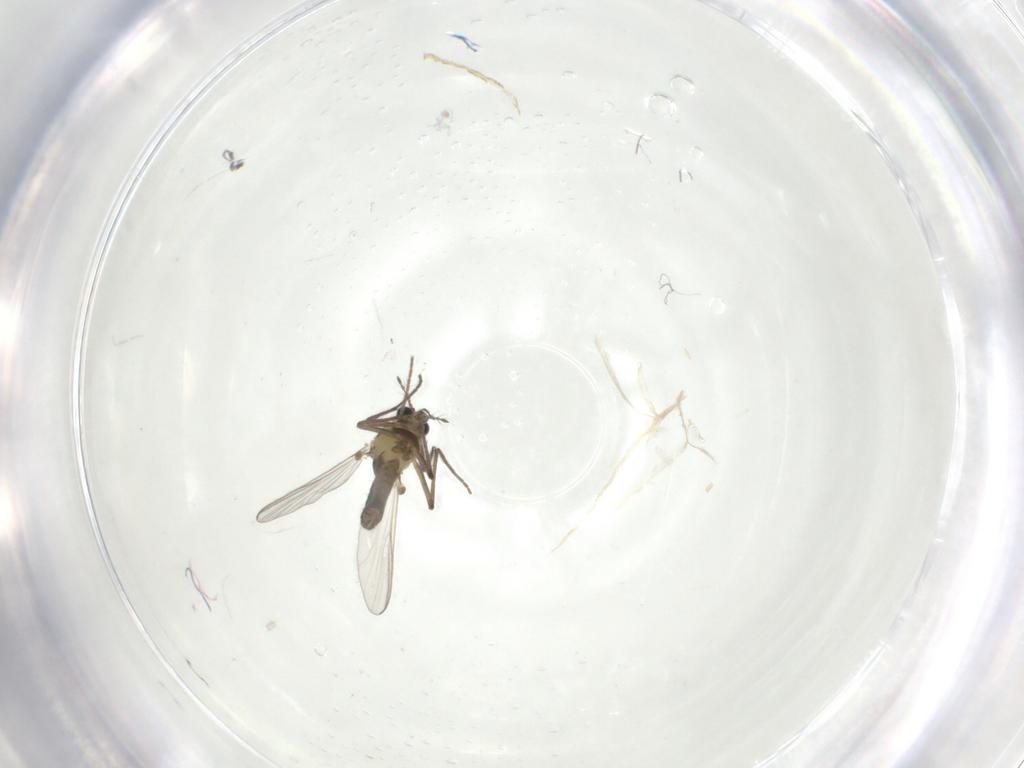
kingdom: Animalia
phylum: Arthropoda
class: Insecta
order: Diptera
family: Chironomidae
